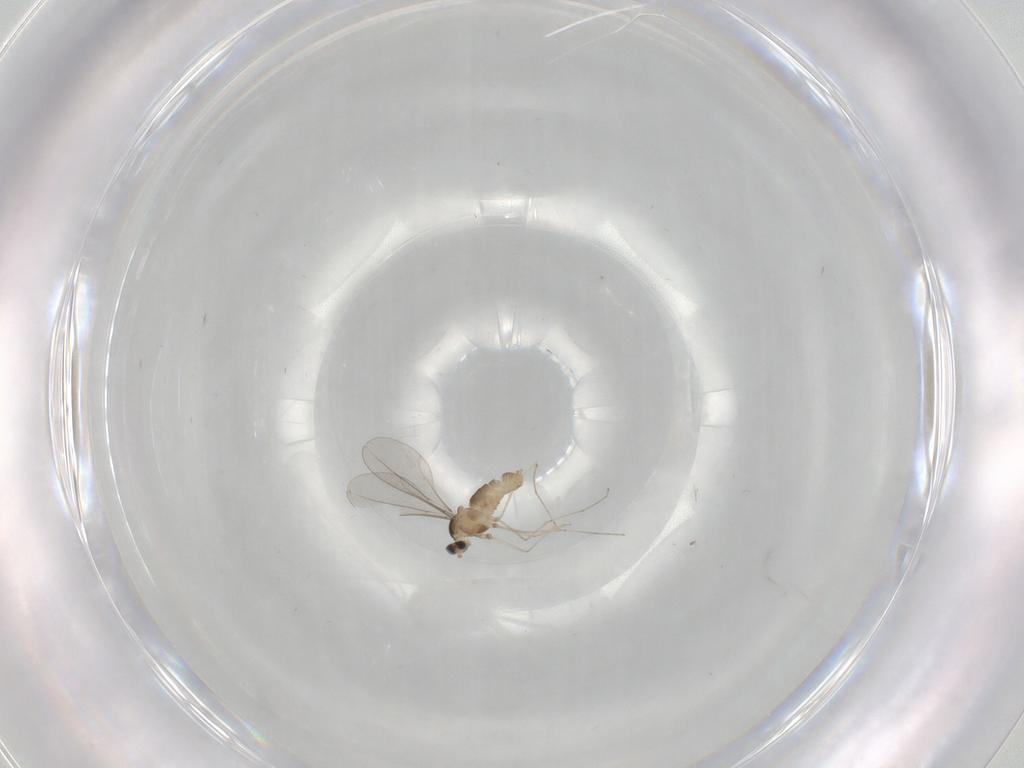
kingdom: Animalia
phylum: Arthropoda
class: Insecta
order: Diptera
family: Cecidomyiidae
